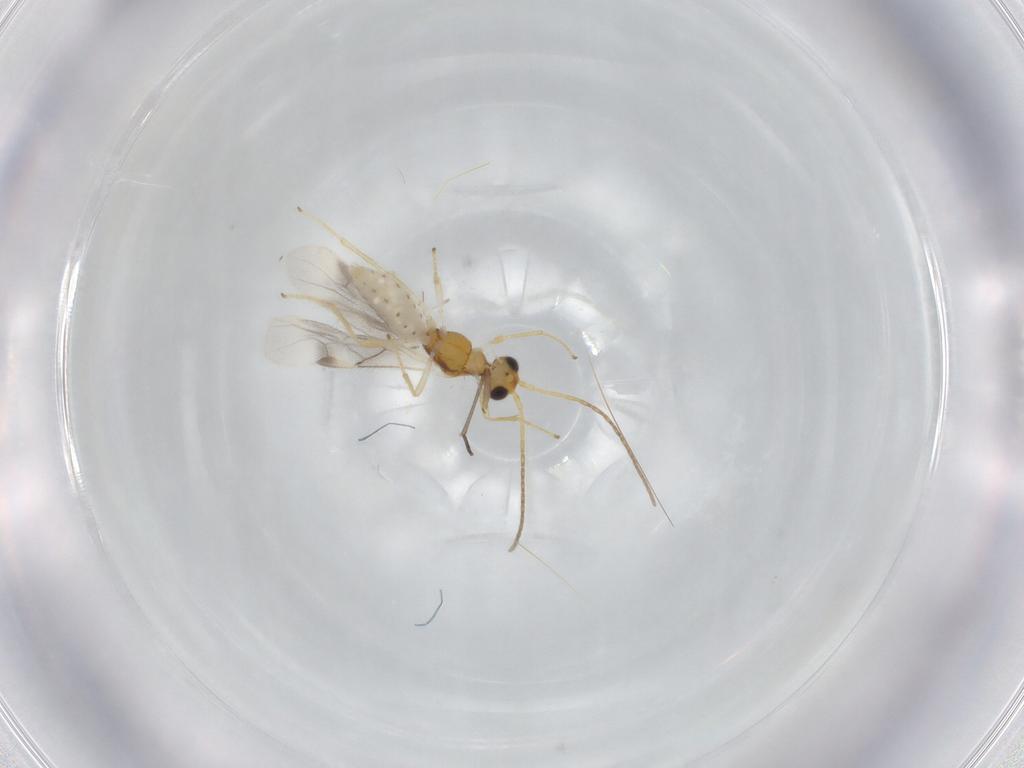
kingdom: Animalia
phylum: Arthropoda
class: Insecta
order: Hymenoptera
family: Braconidae
